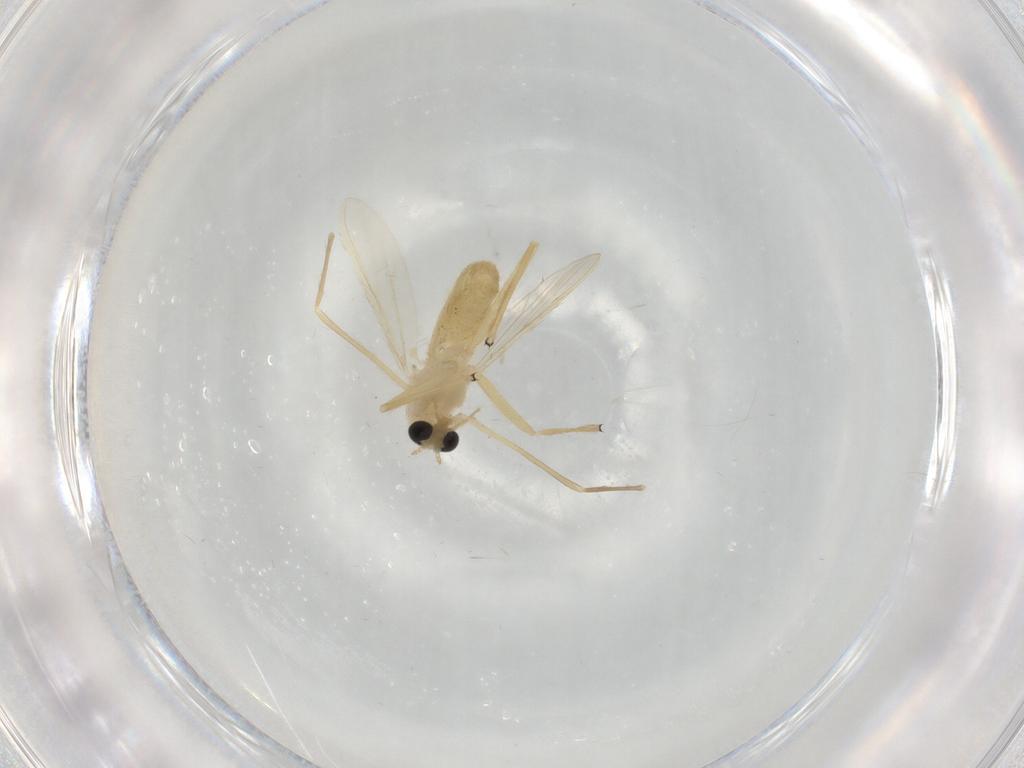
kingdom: Animalia
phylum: Arthropoda
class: Insecta
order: Diptera
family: Chironomidae
